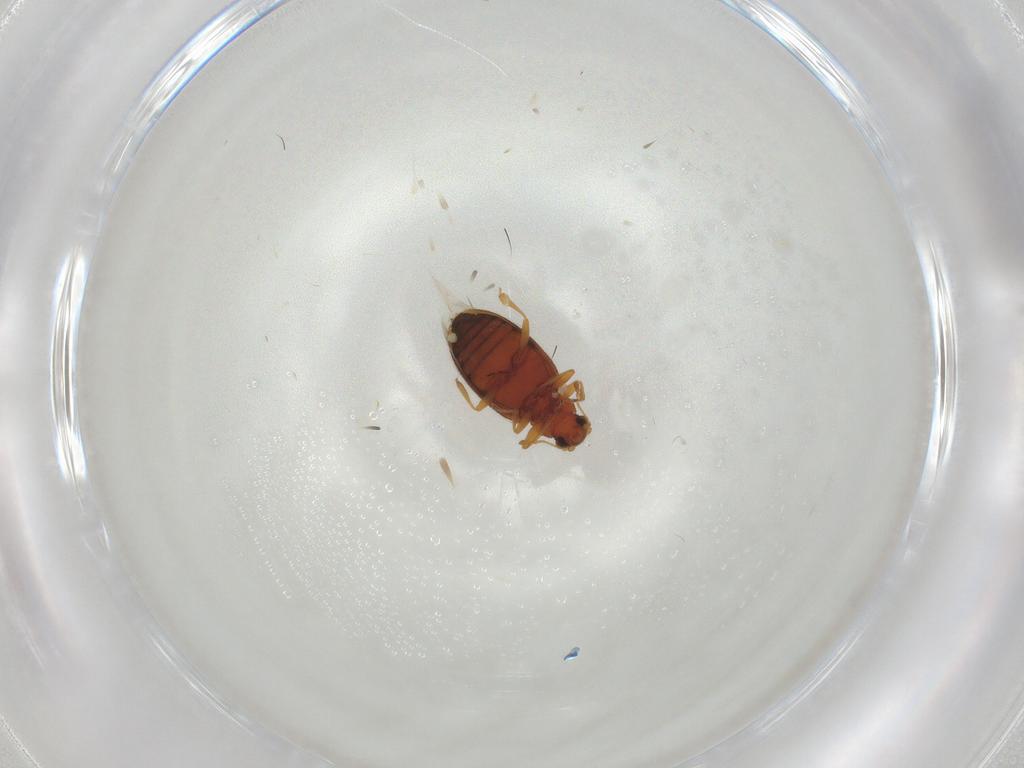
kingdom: Animalia
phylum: Arthropoda
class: Insecta
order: Coleoptera
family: Latridiidae
